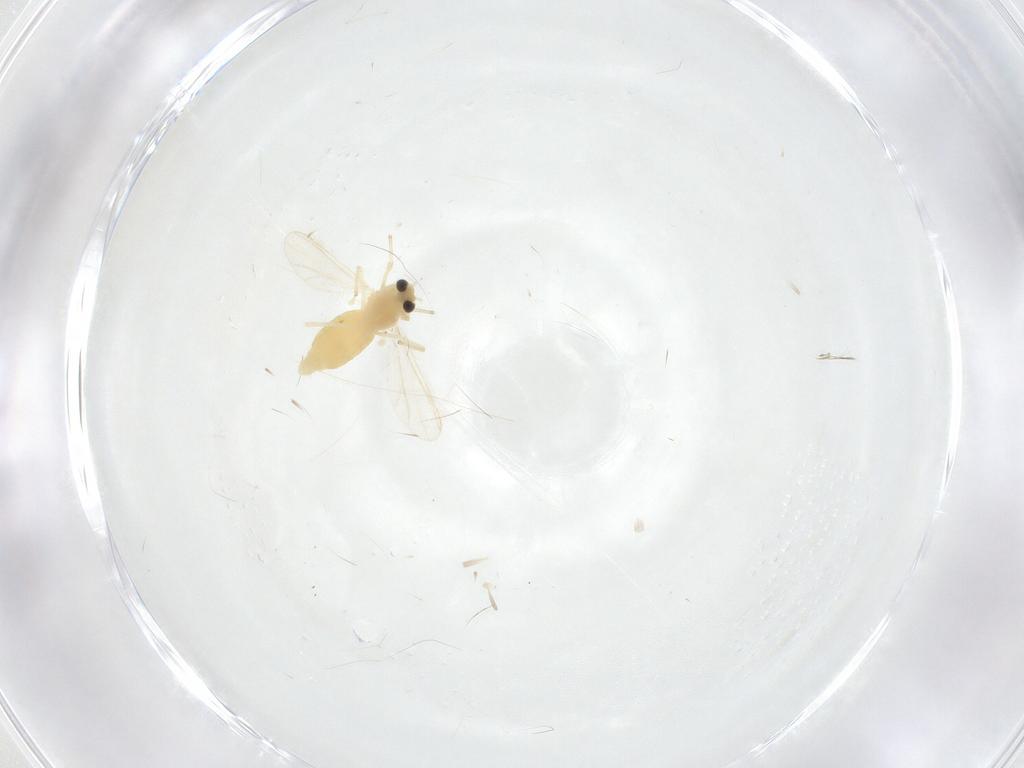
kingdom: Animalia
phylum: Arthropoda
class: Insecta
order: Diptera
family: Chironomidae
